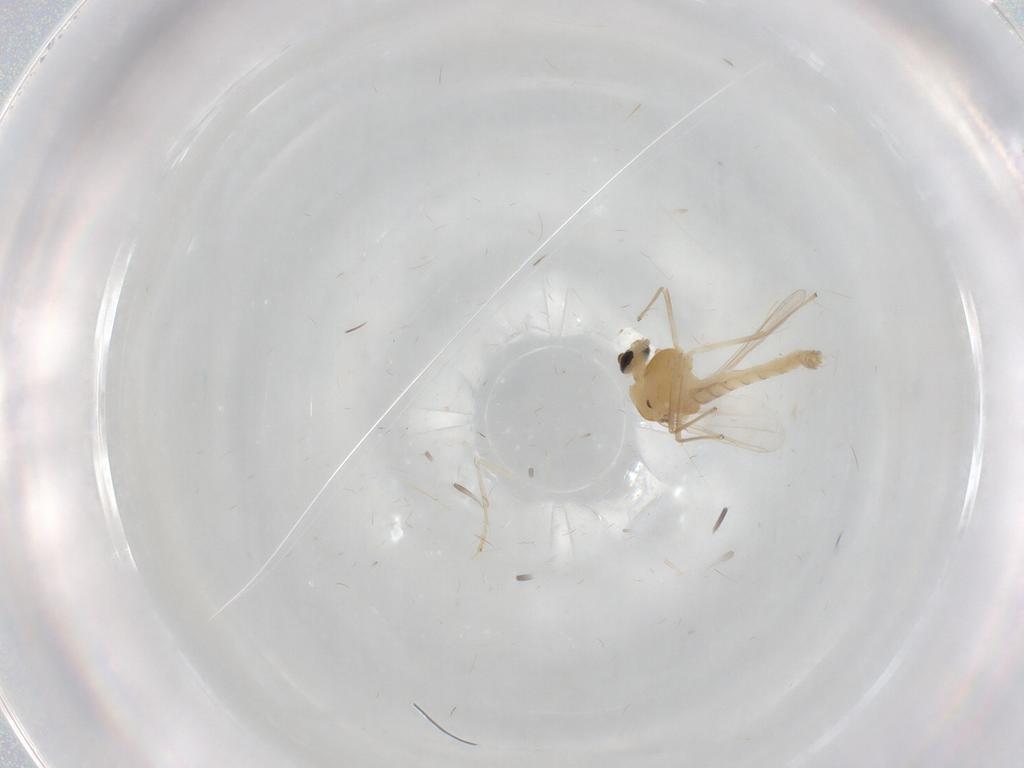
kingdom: Animalia
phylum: Arthropoda
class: Insecta
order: Diptera
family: Chironomidae
